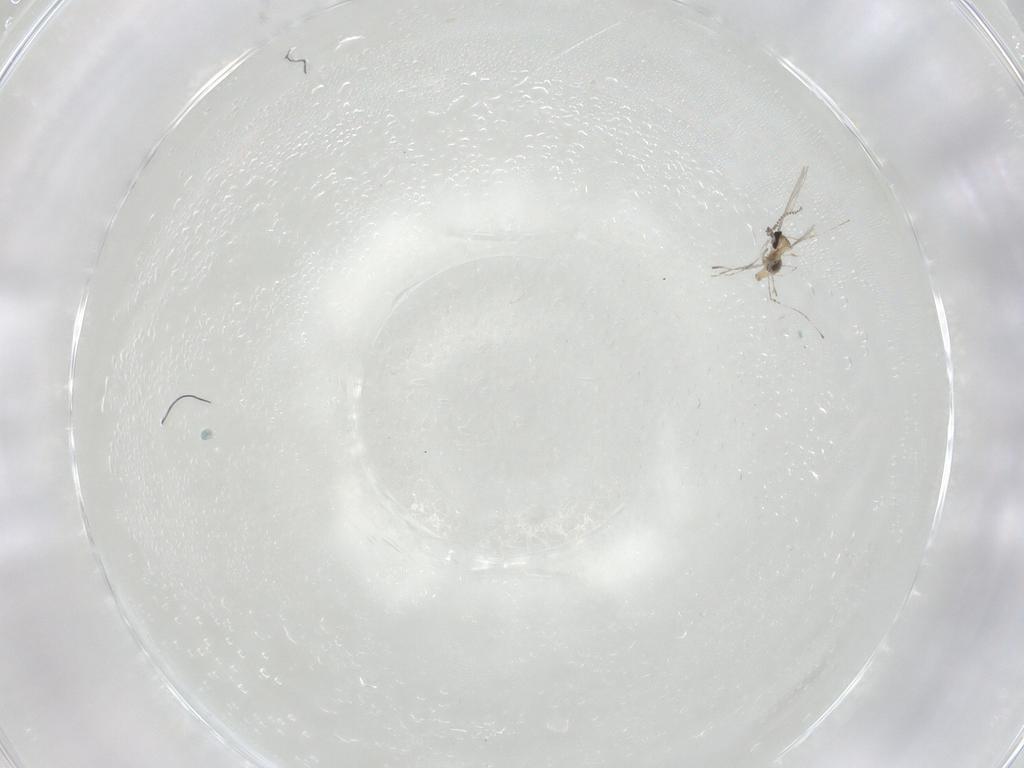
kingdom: Animalia
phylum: Arthropoda
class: Insecta
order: Diptera
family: Cecidomyiidae
